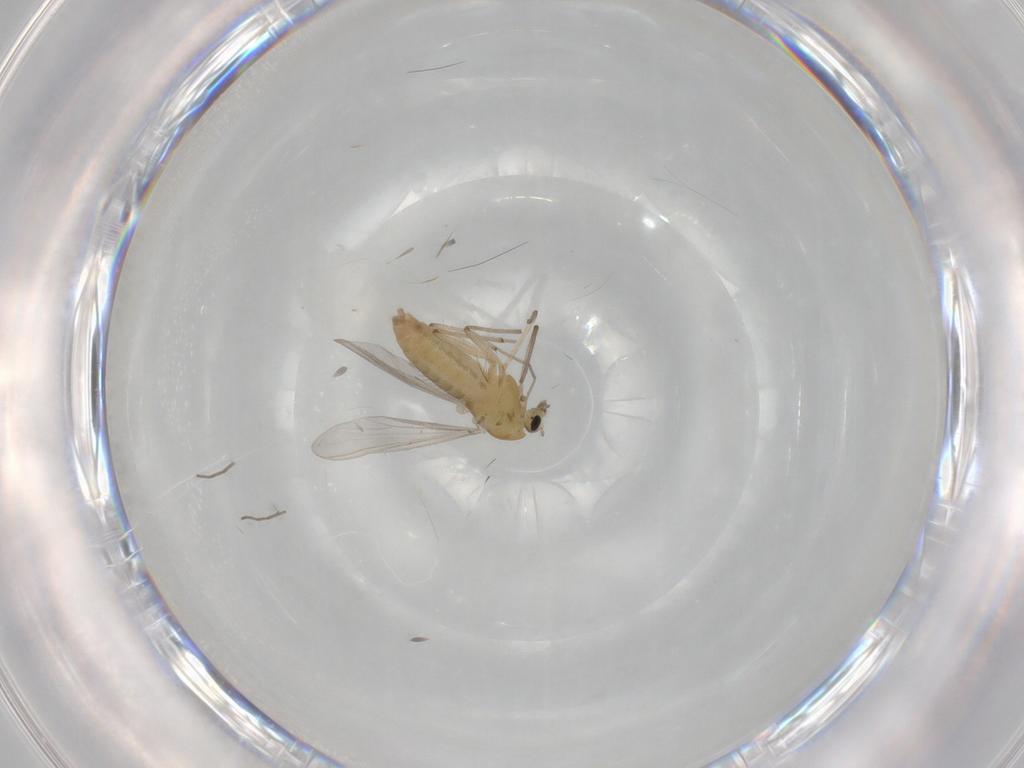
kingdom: Animalia
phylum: Arthropoda
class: Insecta
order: Diptera
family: Chironomidae
